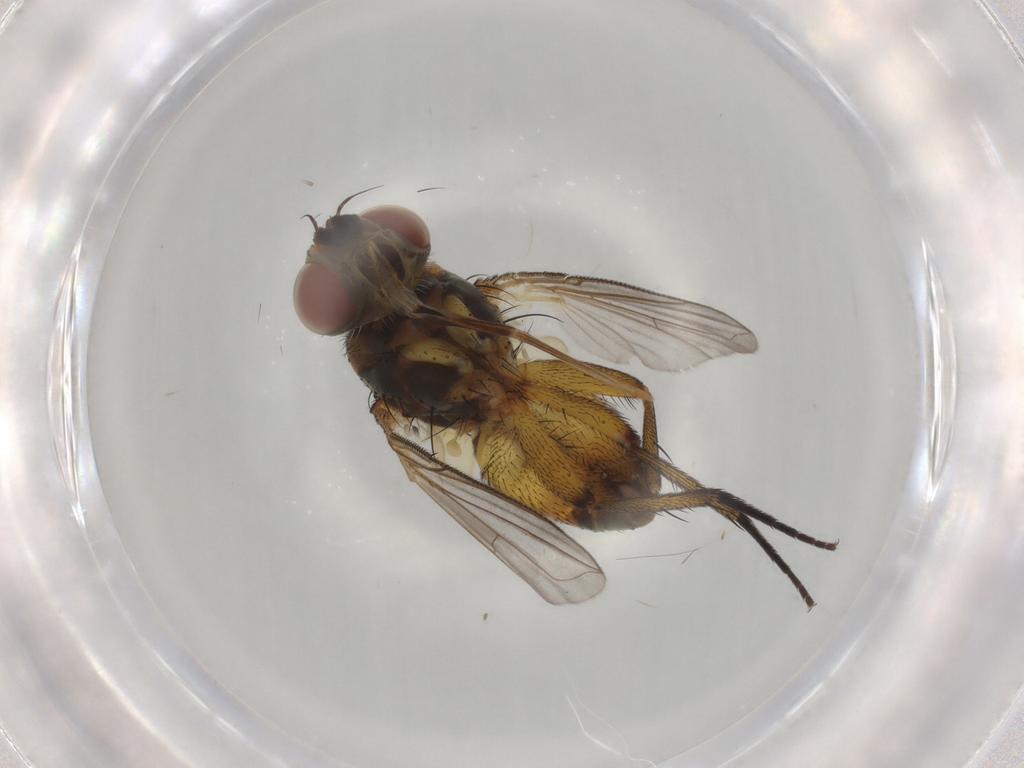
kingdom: Animalia
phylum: Arthropoda
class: Insecta
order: Diptera
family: Tachinidae
